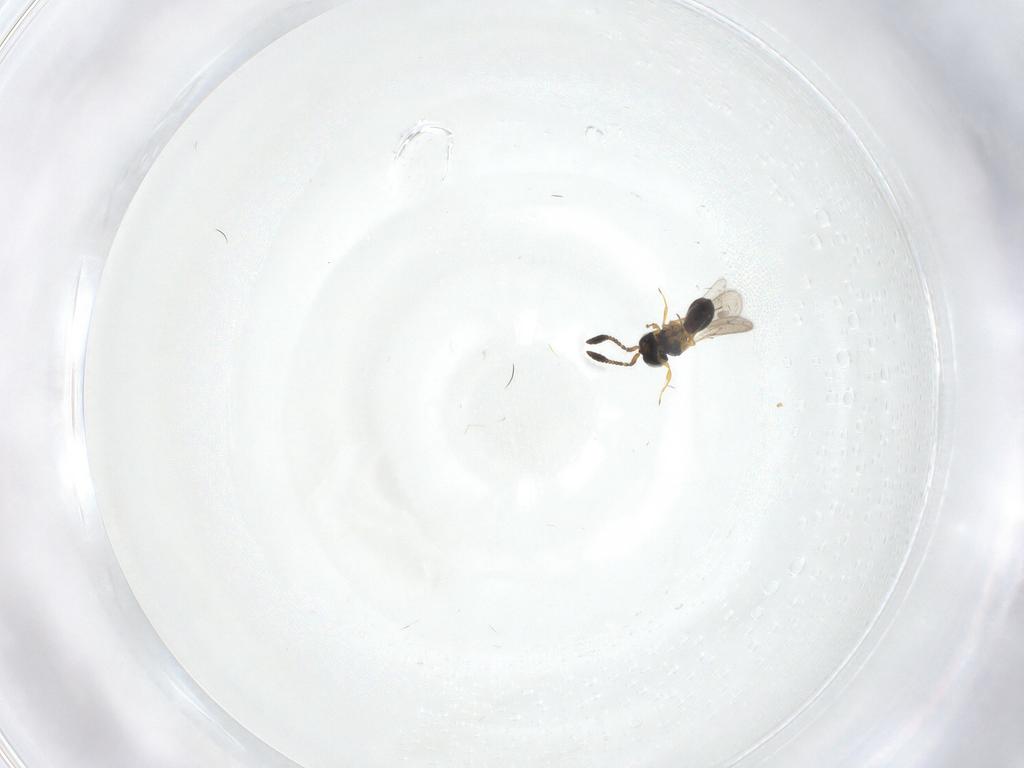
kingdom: Animalia
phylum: Arthropoda
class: Insecta
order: Hymenoptera
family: Scelionidae
